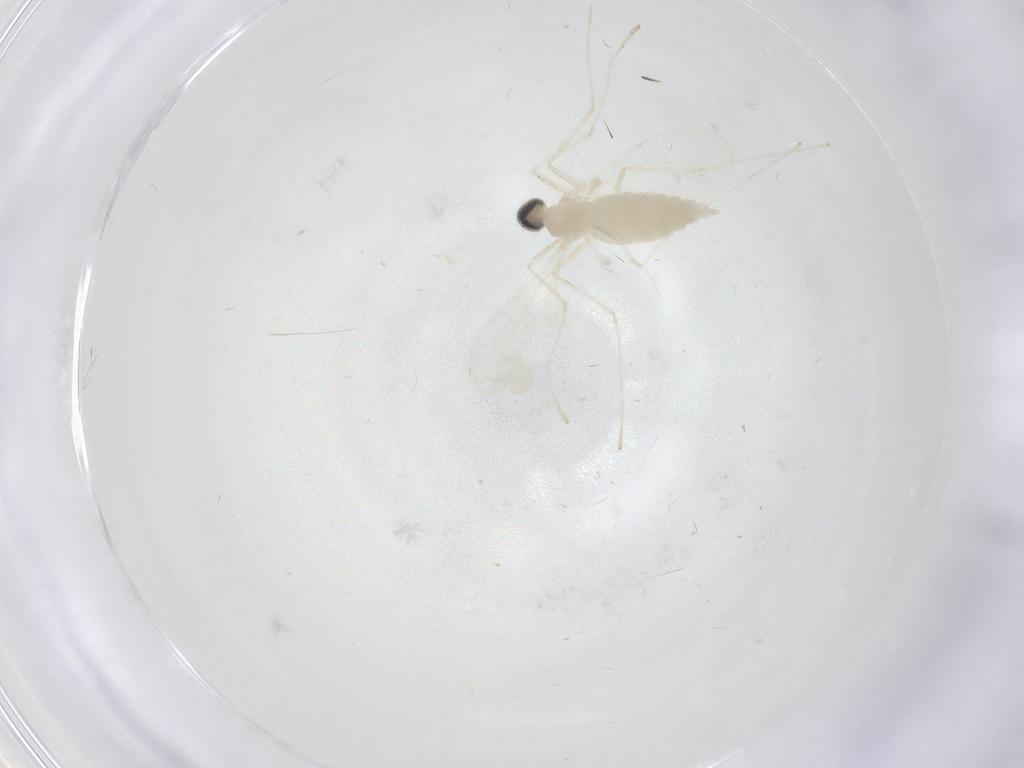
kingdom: Animalia
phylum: Arthropoda
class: Insecta
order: Diptera
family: Cecidomyiidae
